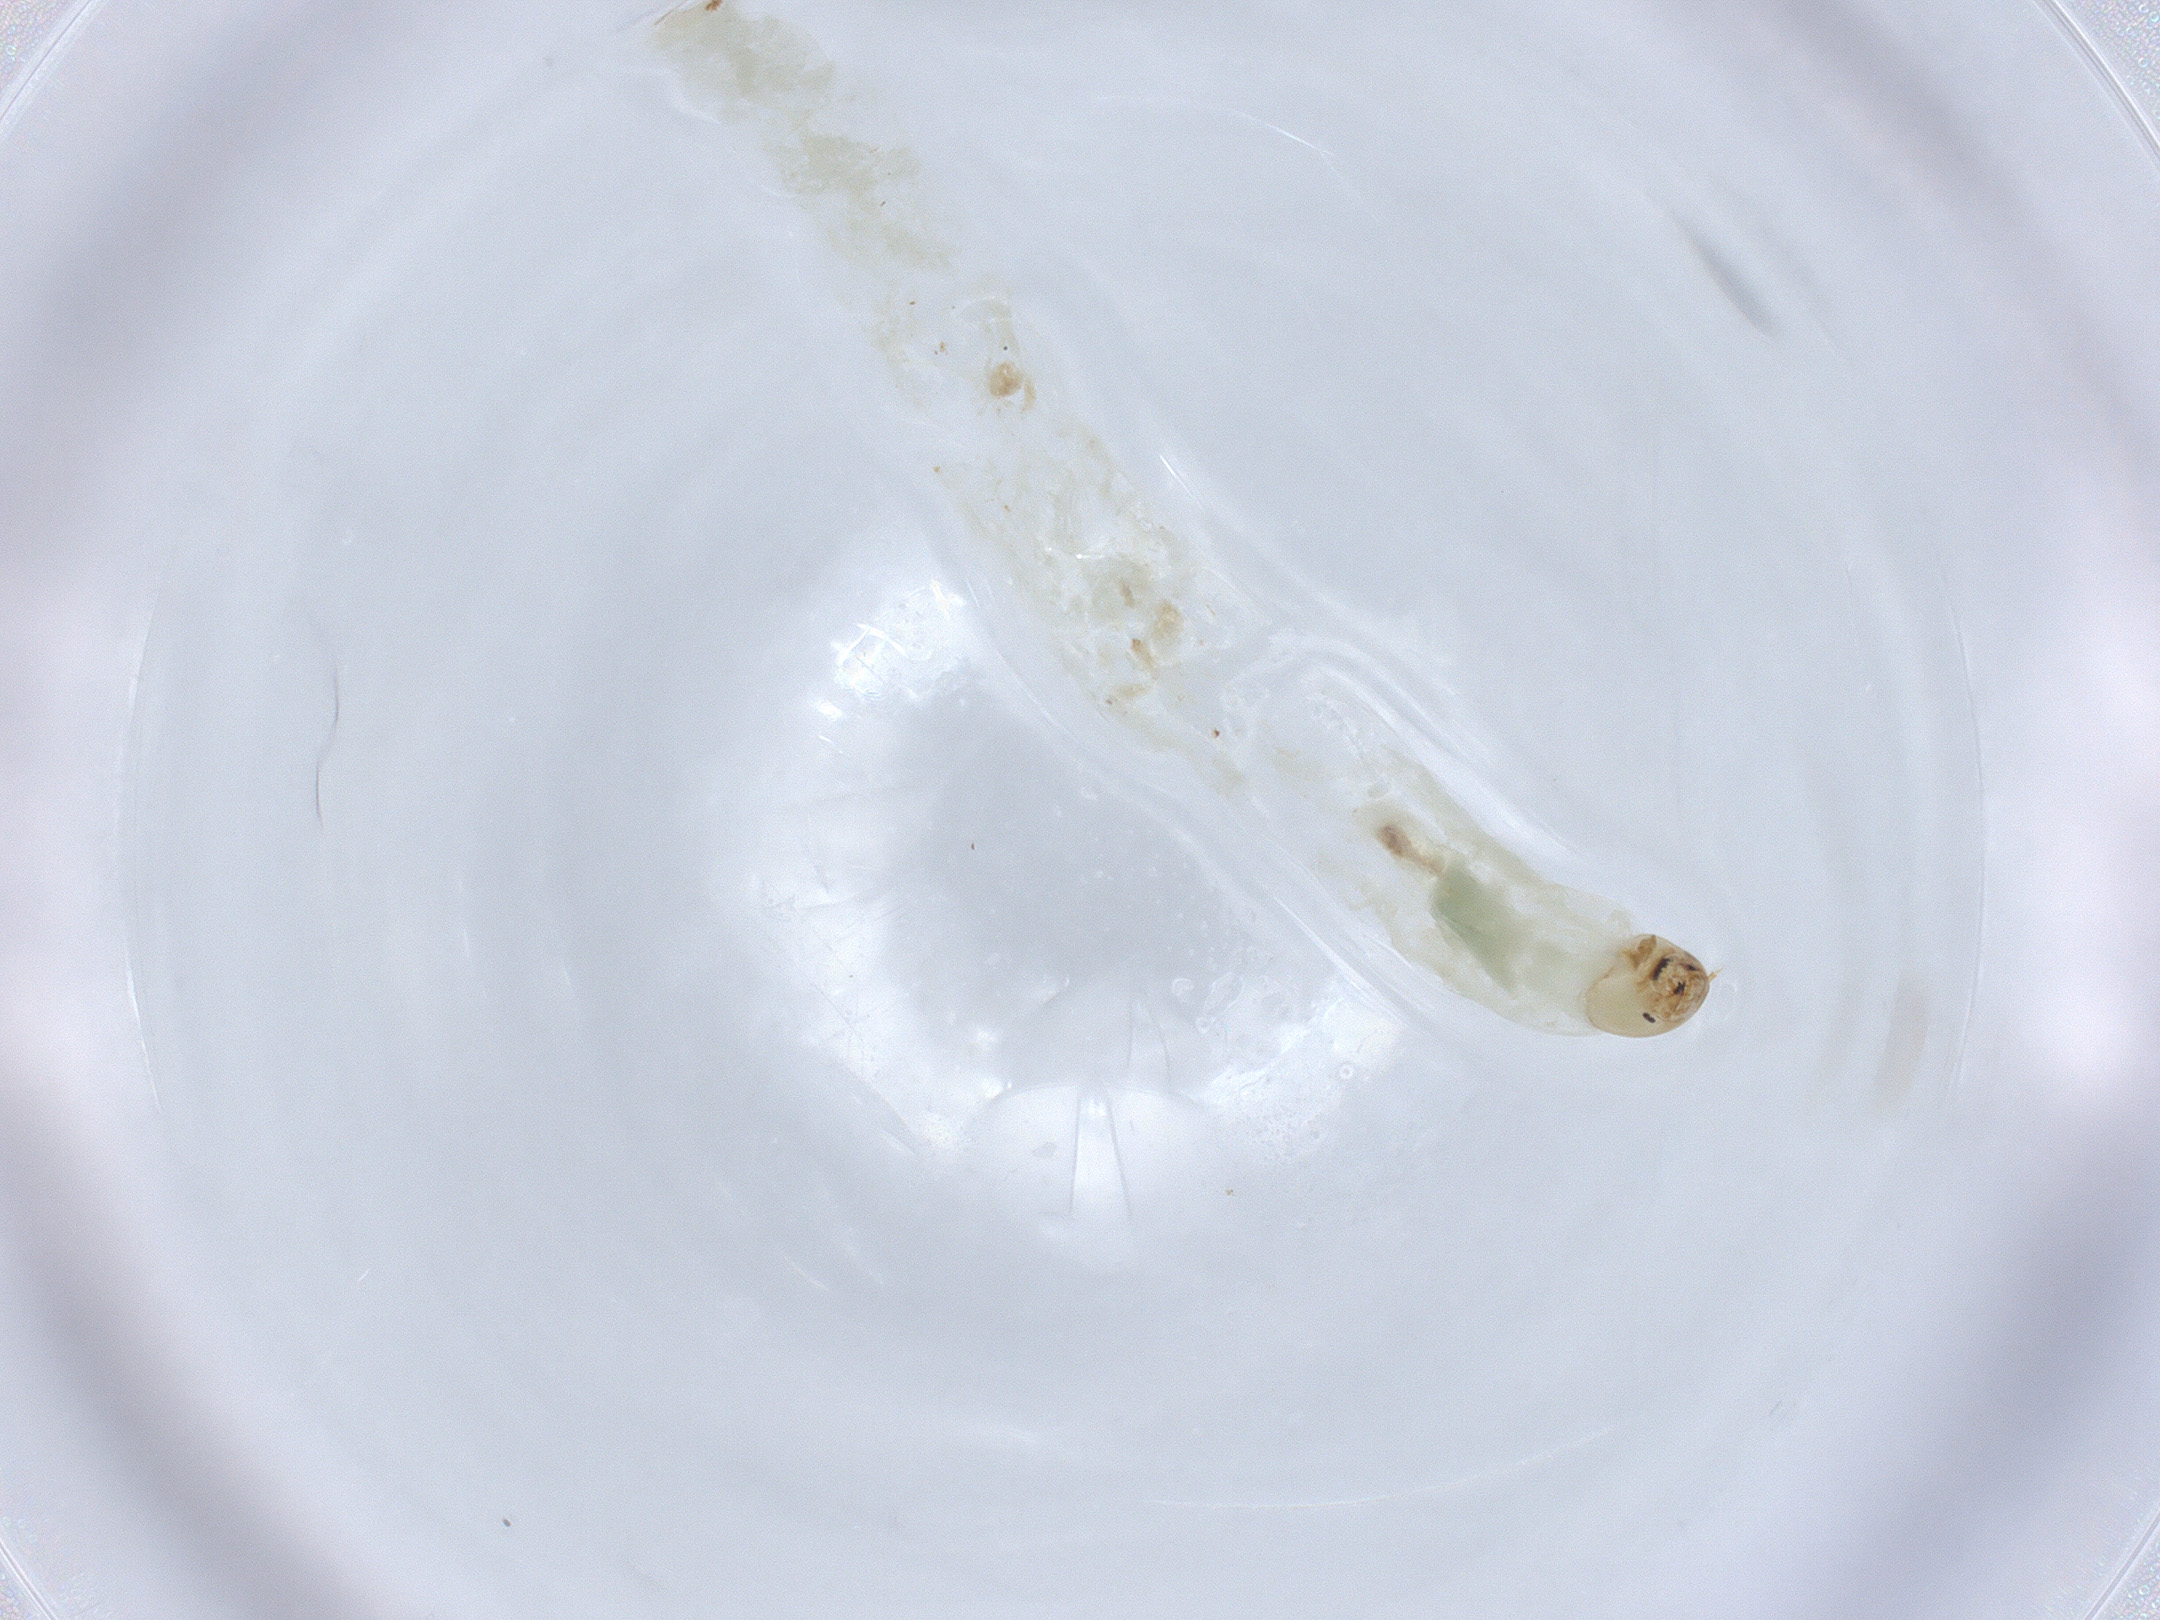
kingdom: Animalia
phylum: Arthropoda
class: Insecta
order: Diptera
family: Chironomidae
